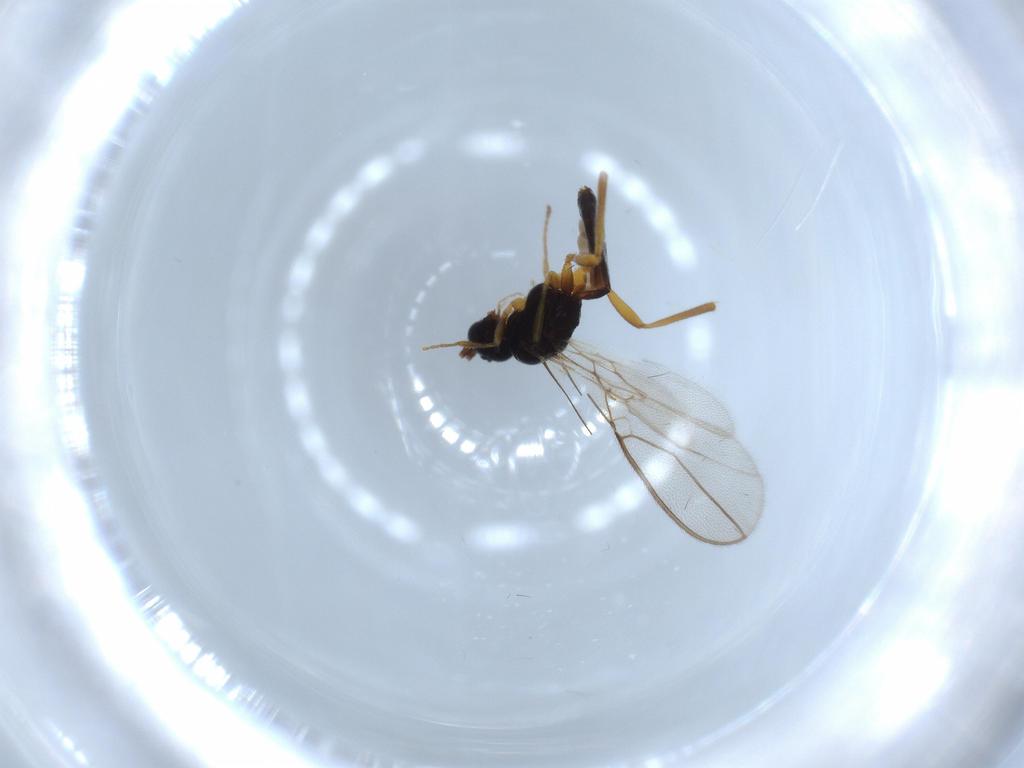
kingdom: Animalia
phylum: Arthropoda
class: Insecta
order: Hymenoptera
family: Braconidae
